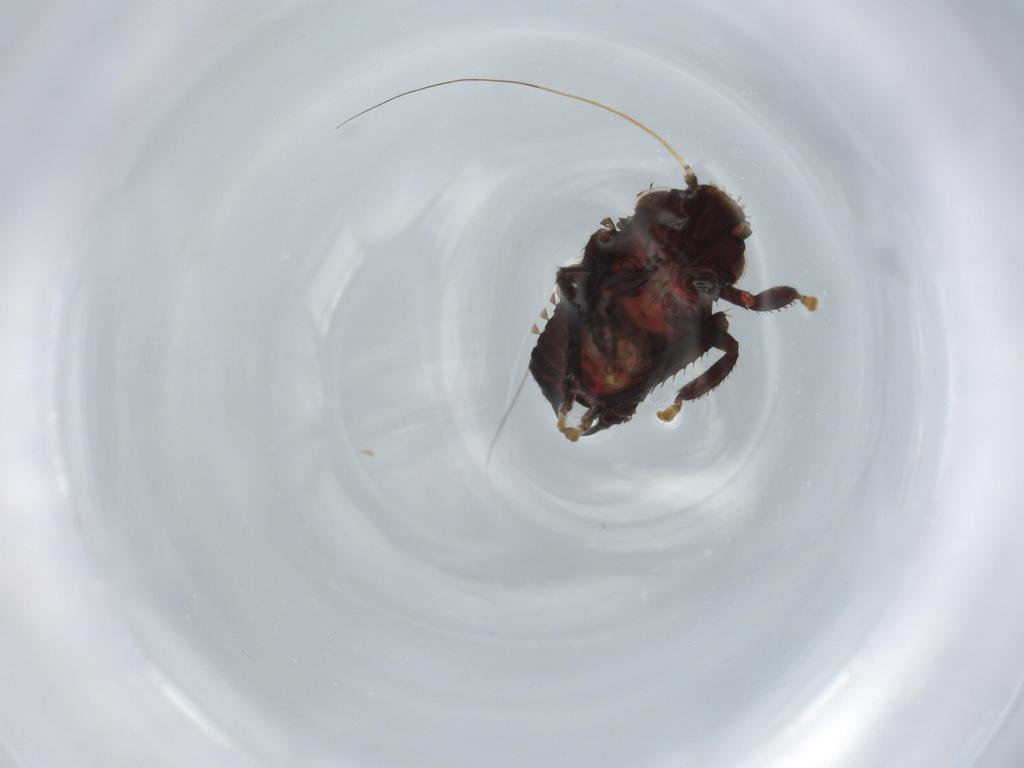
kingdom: Animalia
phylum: Arthropoda
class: Insecta
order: Hemiptera
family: Cicadellidae
